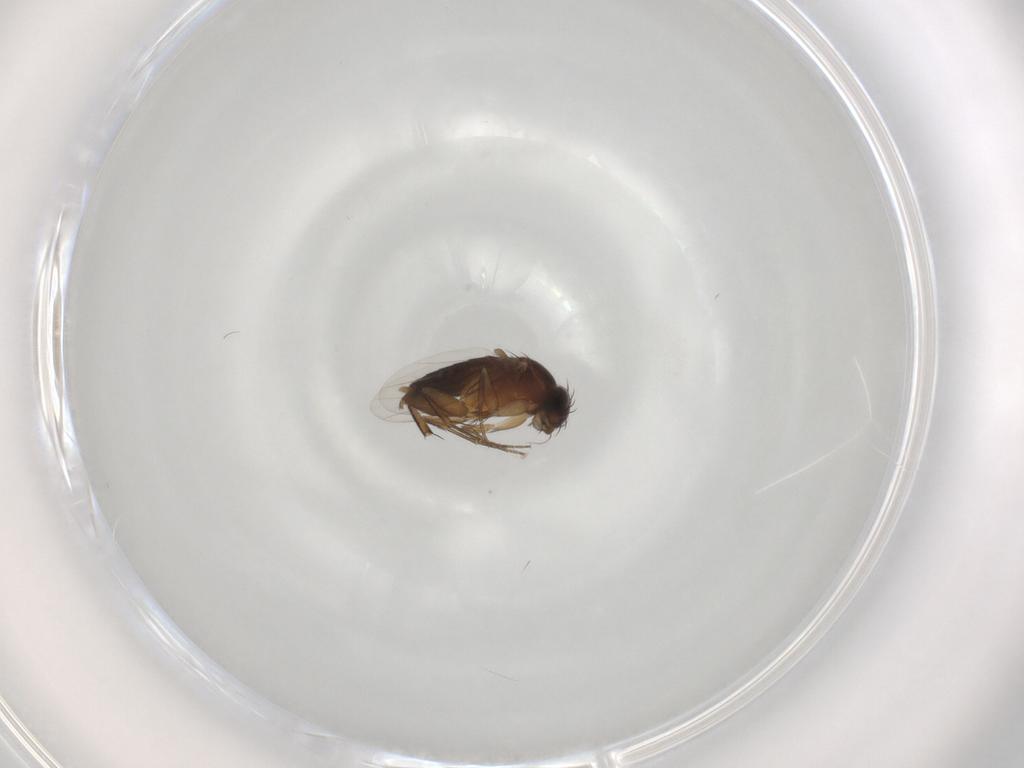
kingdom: Animalia
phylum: Arthropoda
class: Insecta
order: Diptera
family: Phoridae
